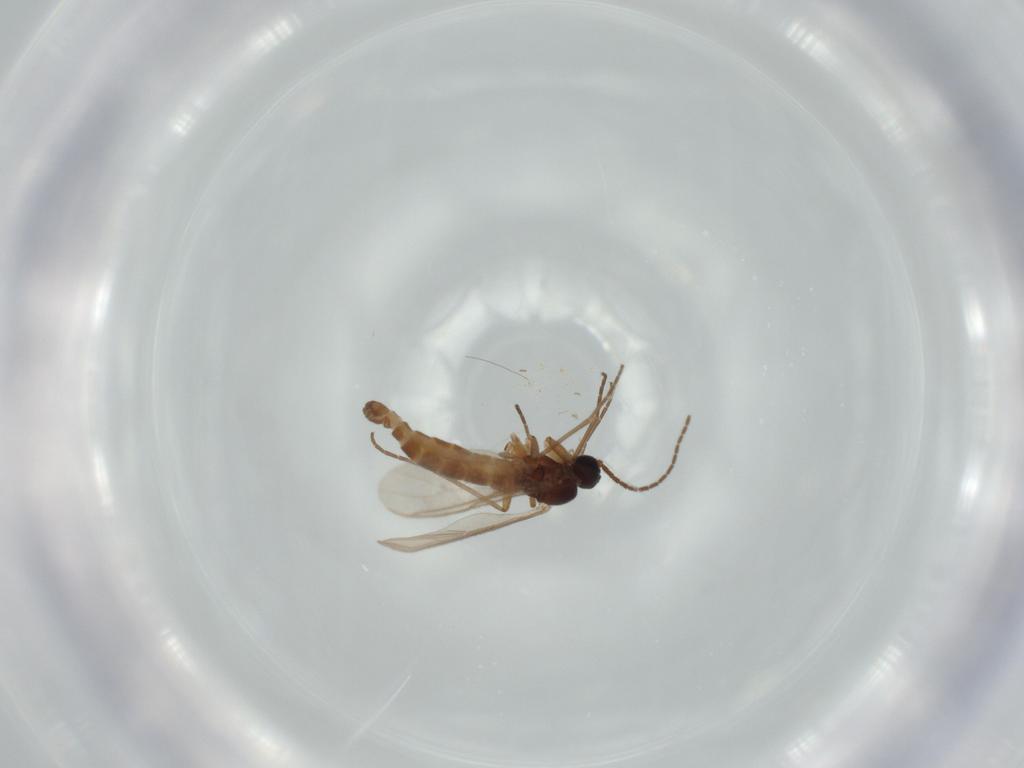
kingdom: Animalia
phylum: Arthropoda
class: Insecta
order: Diptera
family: Sciaridae
